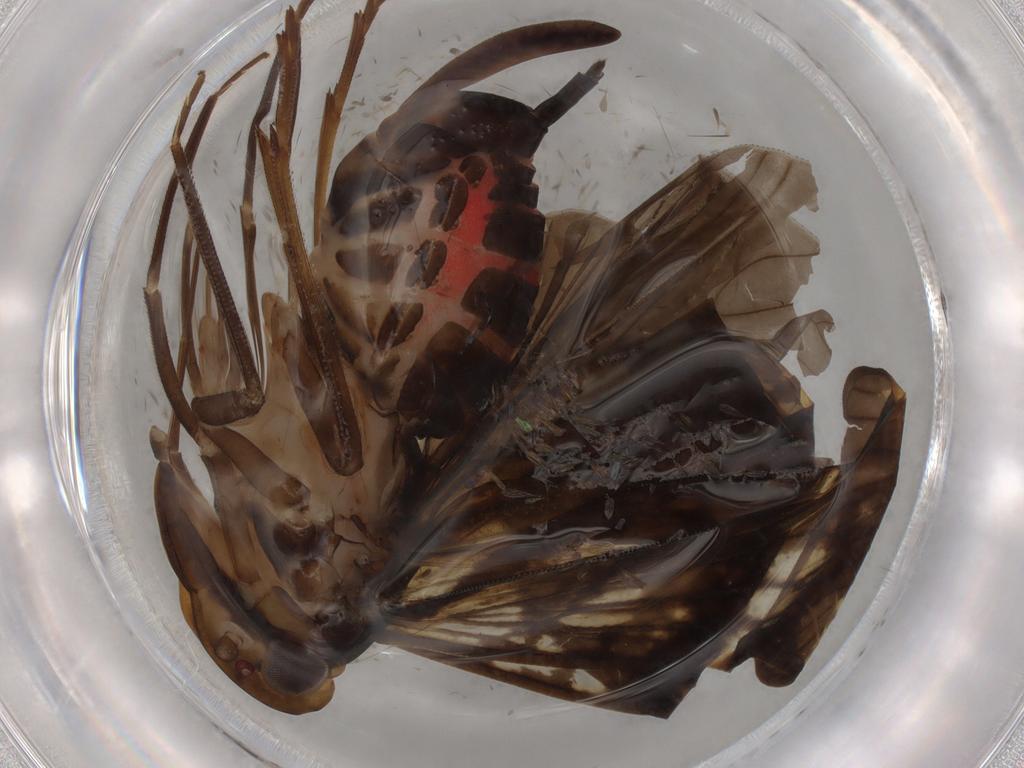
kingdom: Animalia
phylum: Arthropoda
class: Insecta
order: Hemiptera
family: Cixiidae
